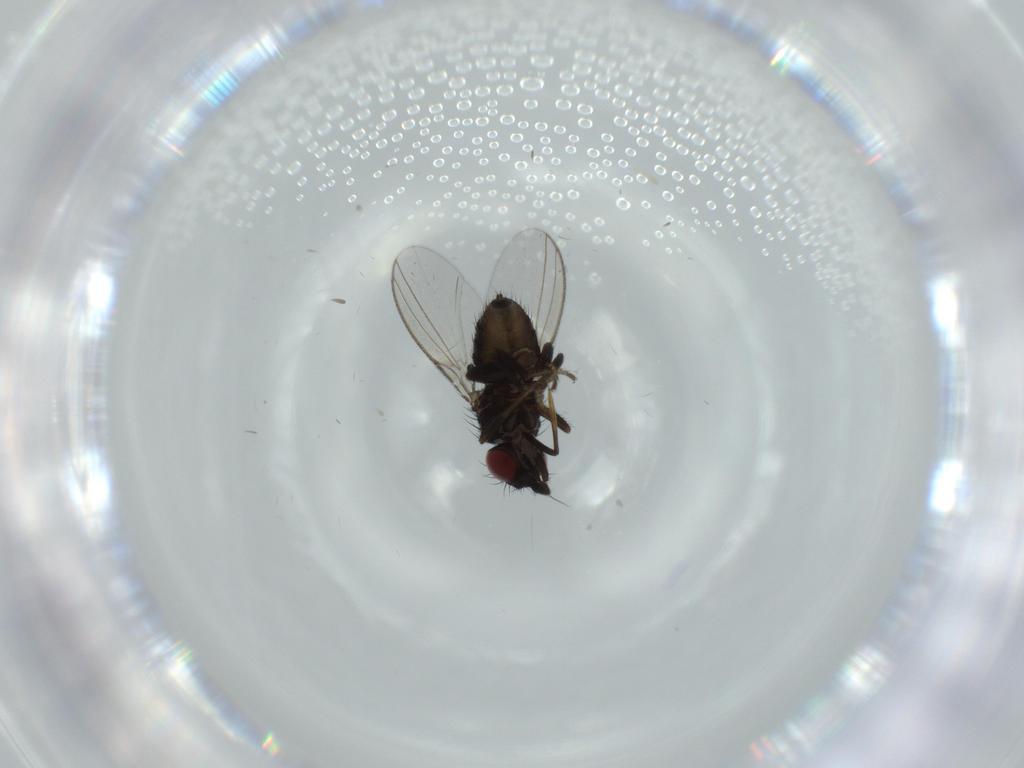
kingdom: Animalia
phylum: Arthropoda
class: Insecta
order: Diptera
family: Milichiidae
